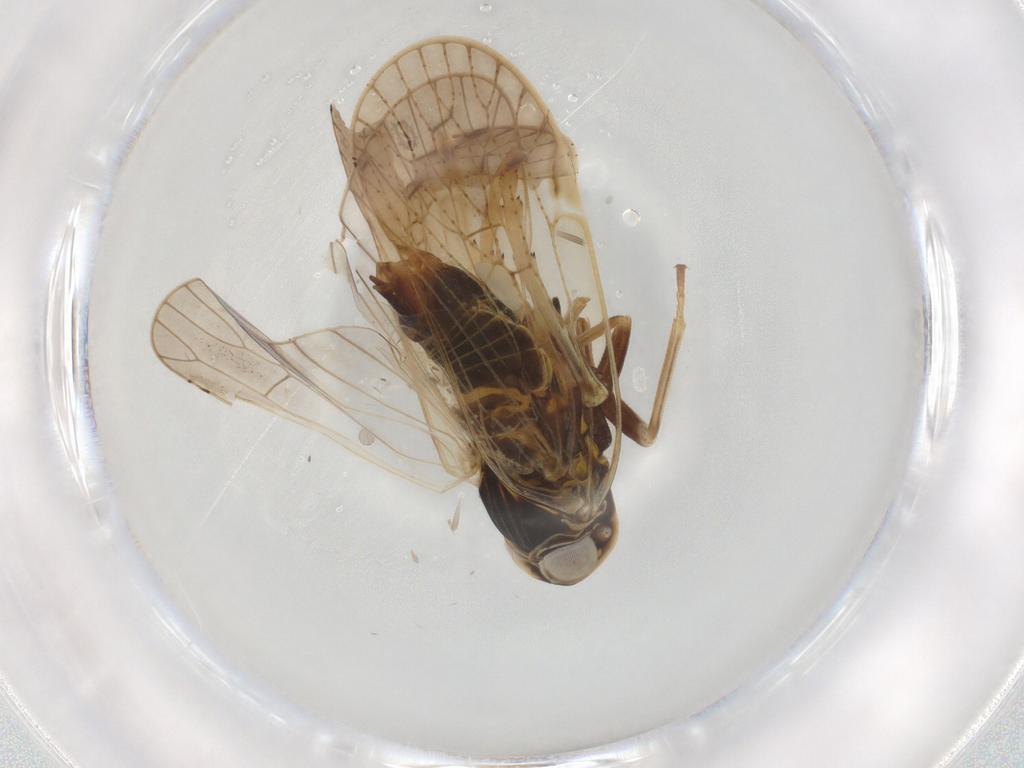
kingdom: Animalia
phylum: Arthropoda
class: Insecta
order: Hemiptera
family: Cicadellidae
